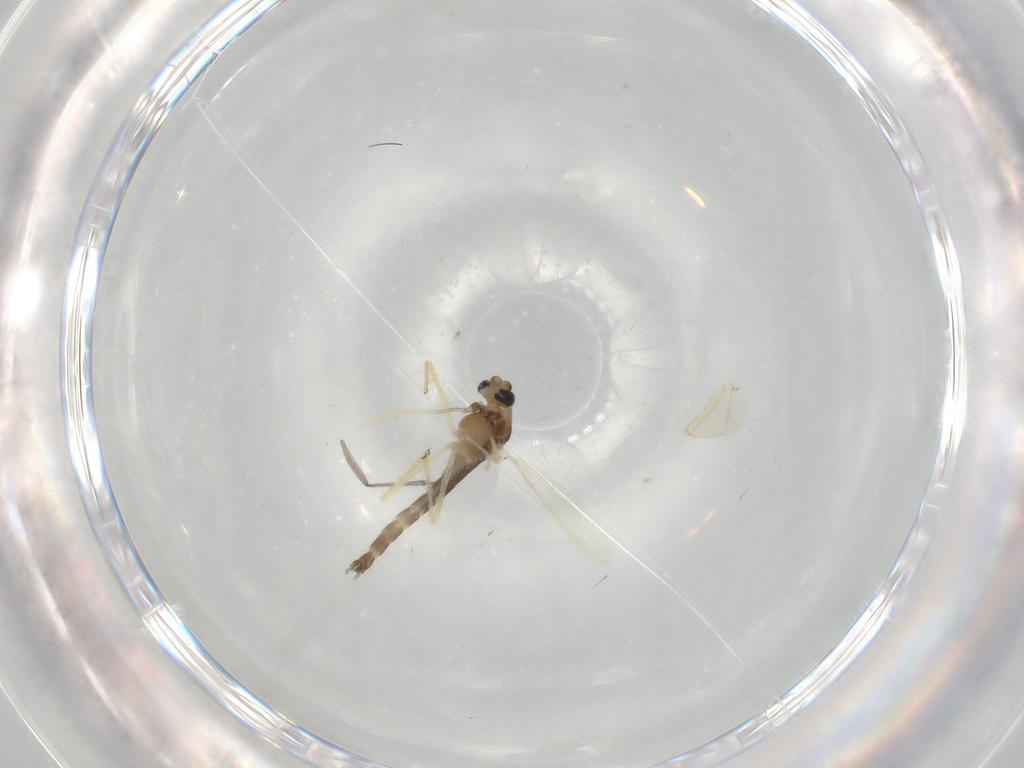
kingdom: Animalia
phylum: Arthropoda
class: Insecta
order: Diptera
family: Chironomidae
